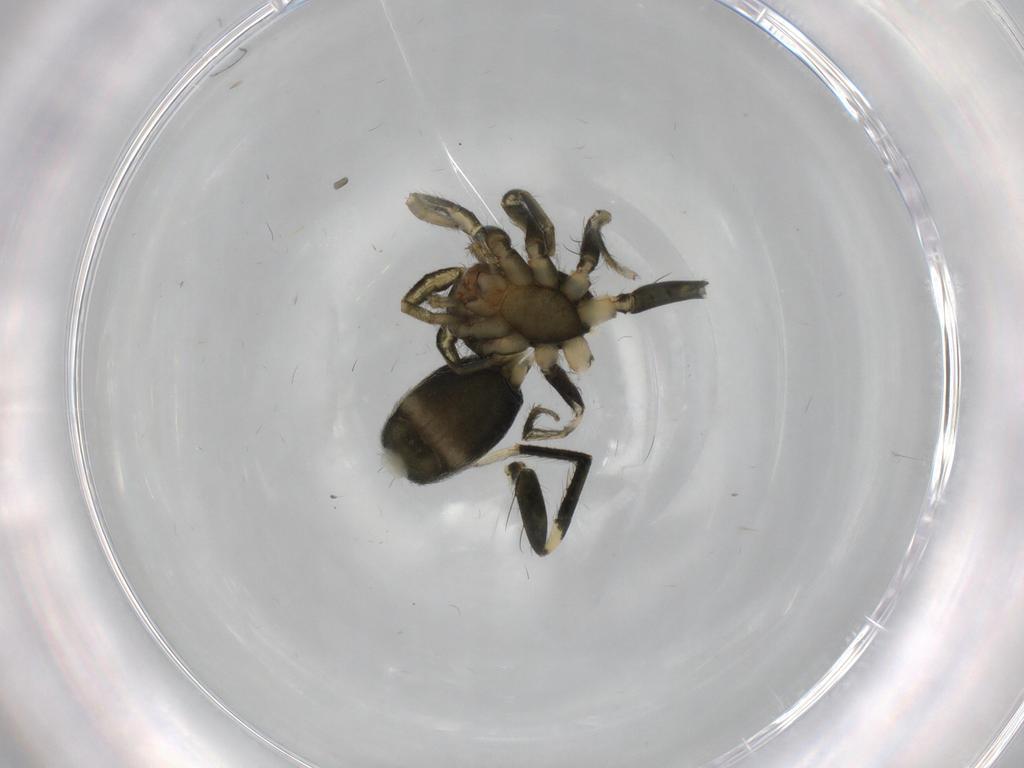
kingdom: Animalia
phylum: Arthropoda
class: Arachnida
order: Araneae
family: Gnaphosidae
